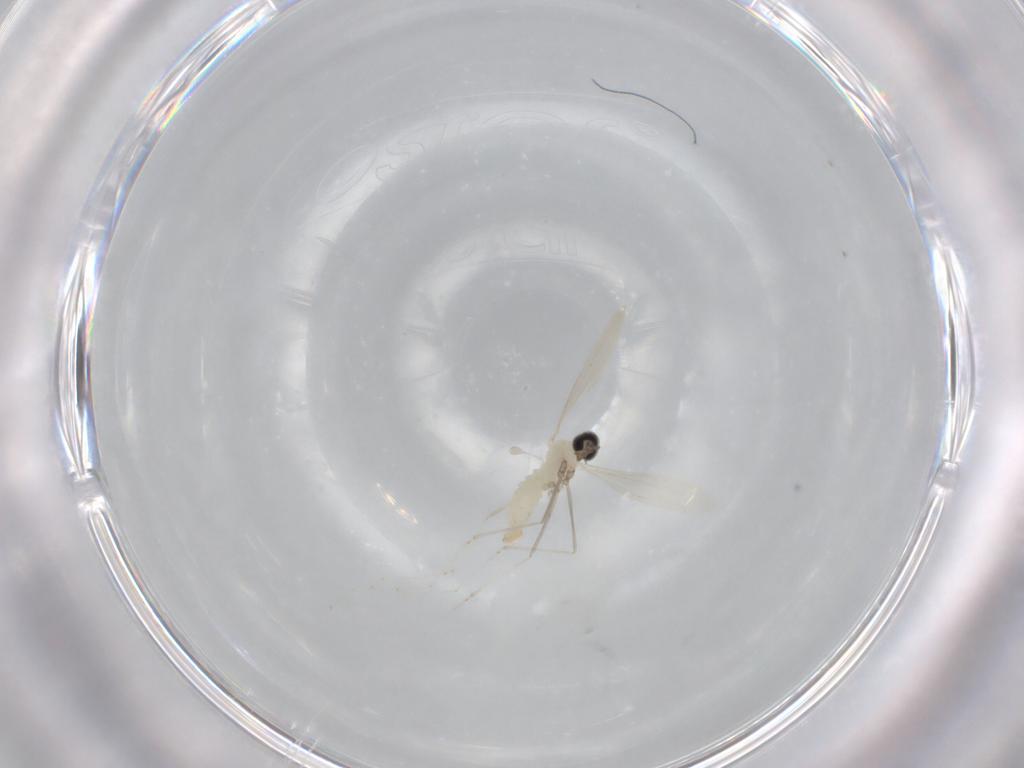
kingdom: Animalia
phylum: Arthropoda
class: Insecta
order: Diptera
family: Cecidomyiidae
